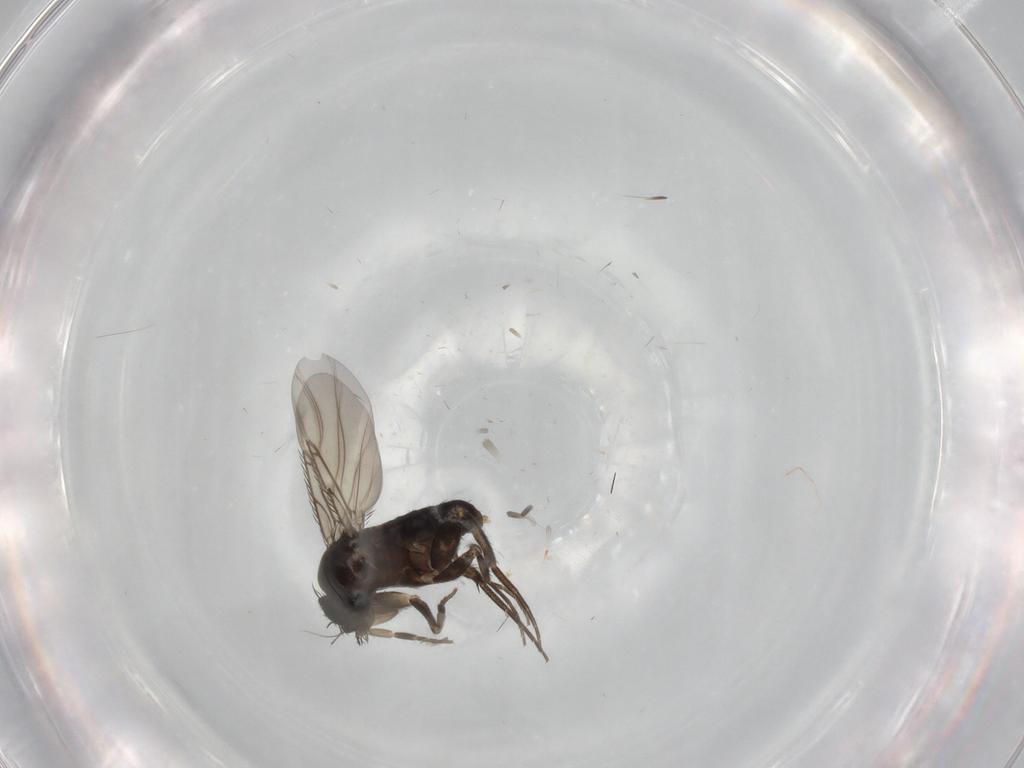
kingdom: Animalia
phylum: Arthropoda
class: Insecta
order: Diptera
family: Phoridae
